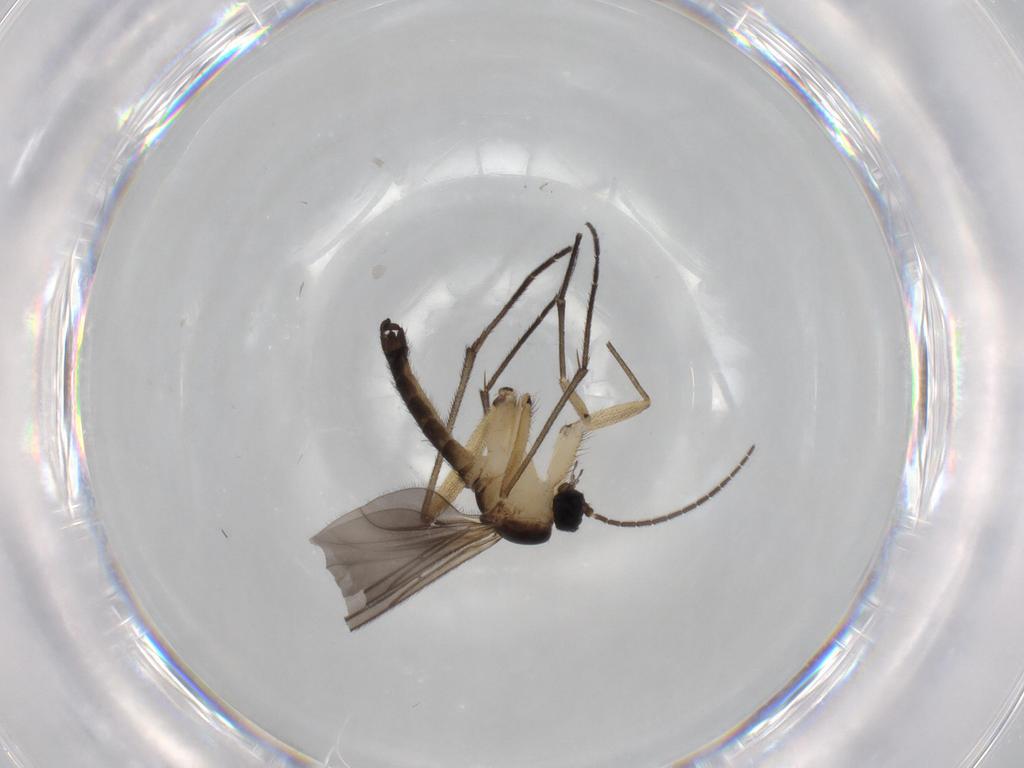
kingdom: Animalia
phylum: Arthropoda
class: Insecta
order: Diptera
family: Sciaridae
